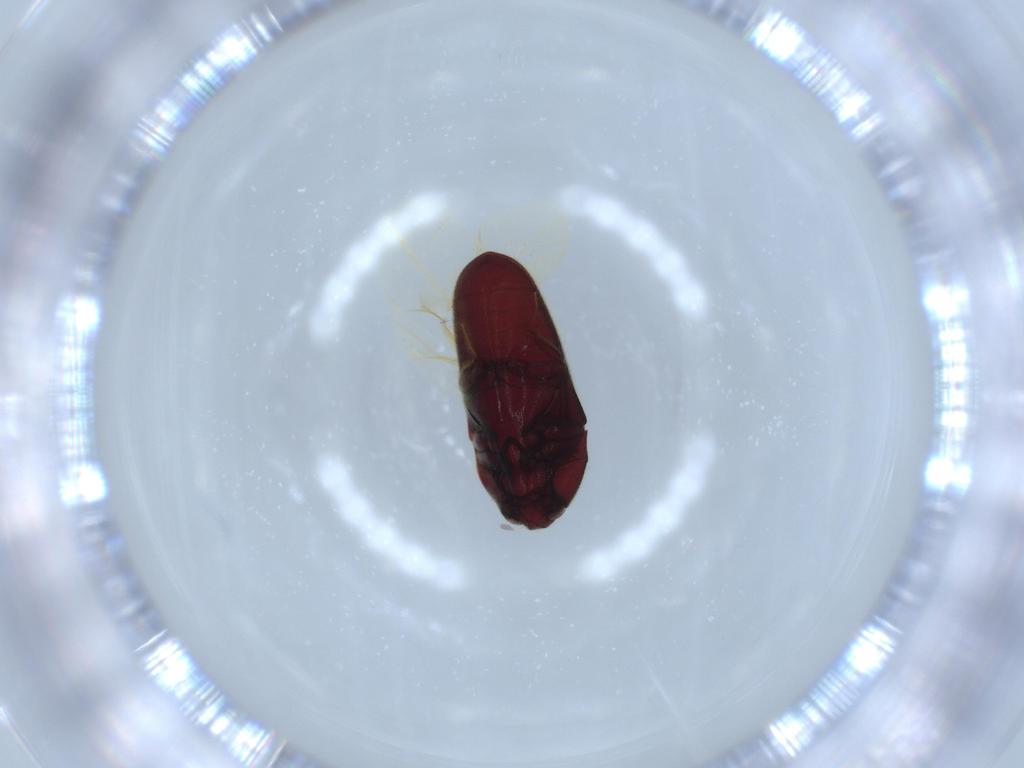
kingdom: Animalia
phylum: Arthropoda
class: Insecta
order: Coleoptera
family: Throscidae
